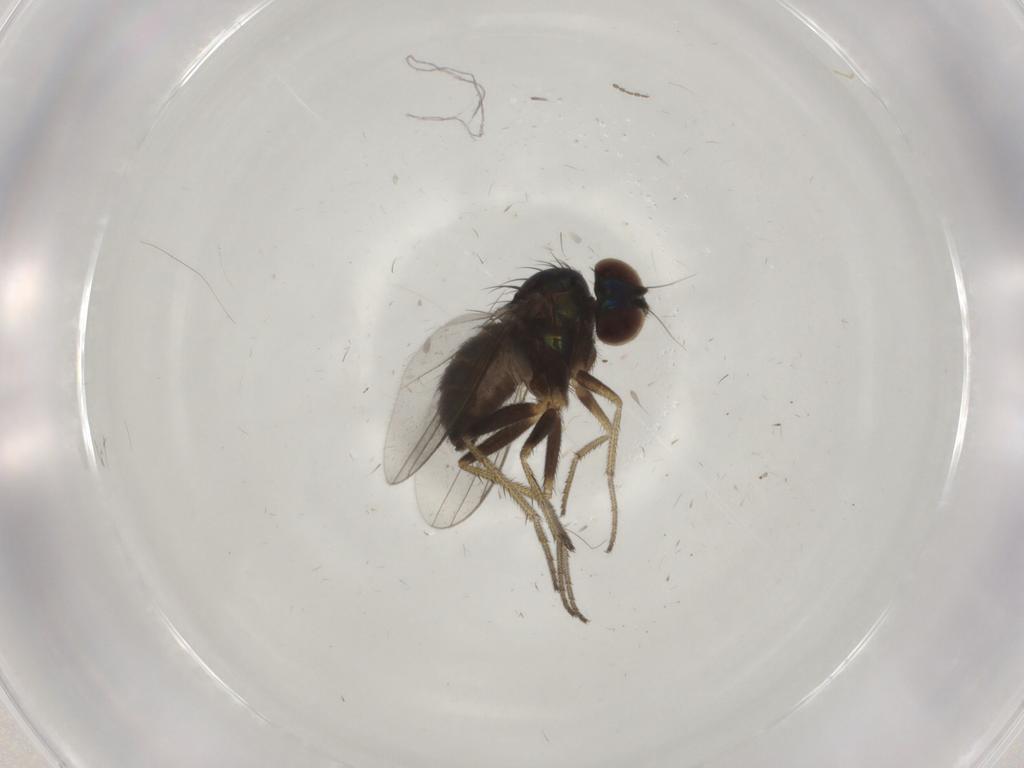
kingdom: Animalia
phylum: Arthropoda
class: Insecta
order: Diptera
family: Dolichopodidae
